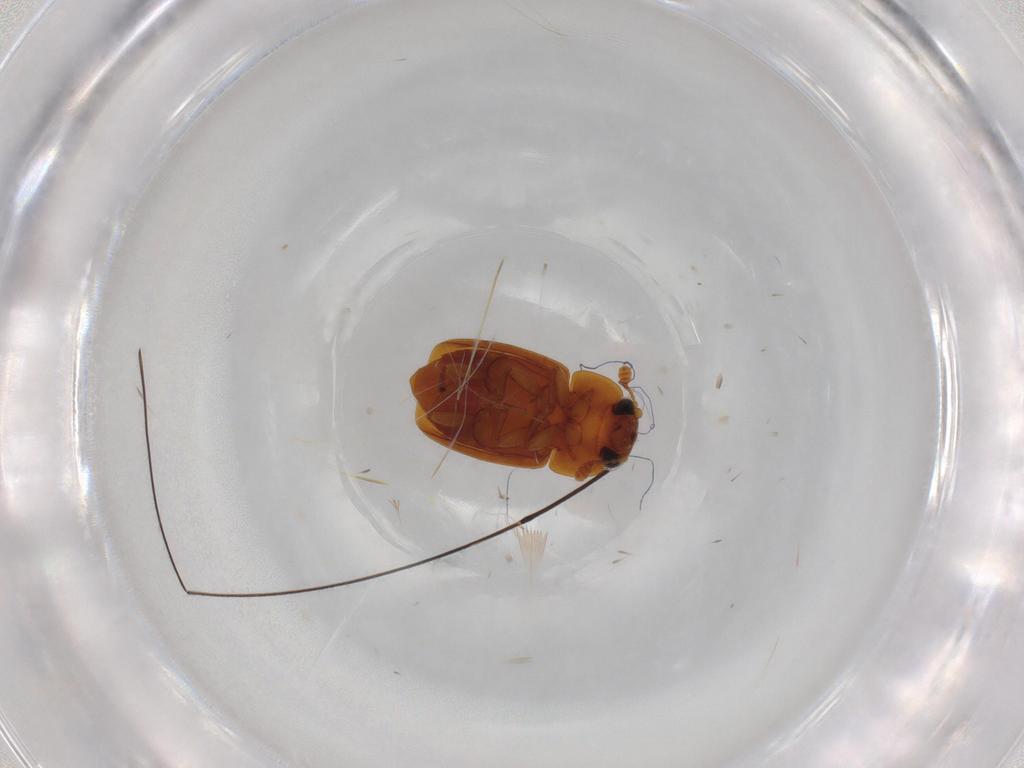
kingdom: Animalia
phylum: Arthropoda
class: Insecta
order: Coleoptera
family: Nitidulidae
